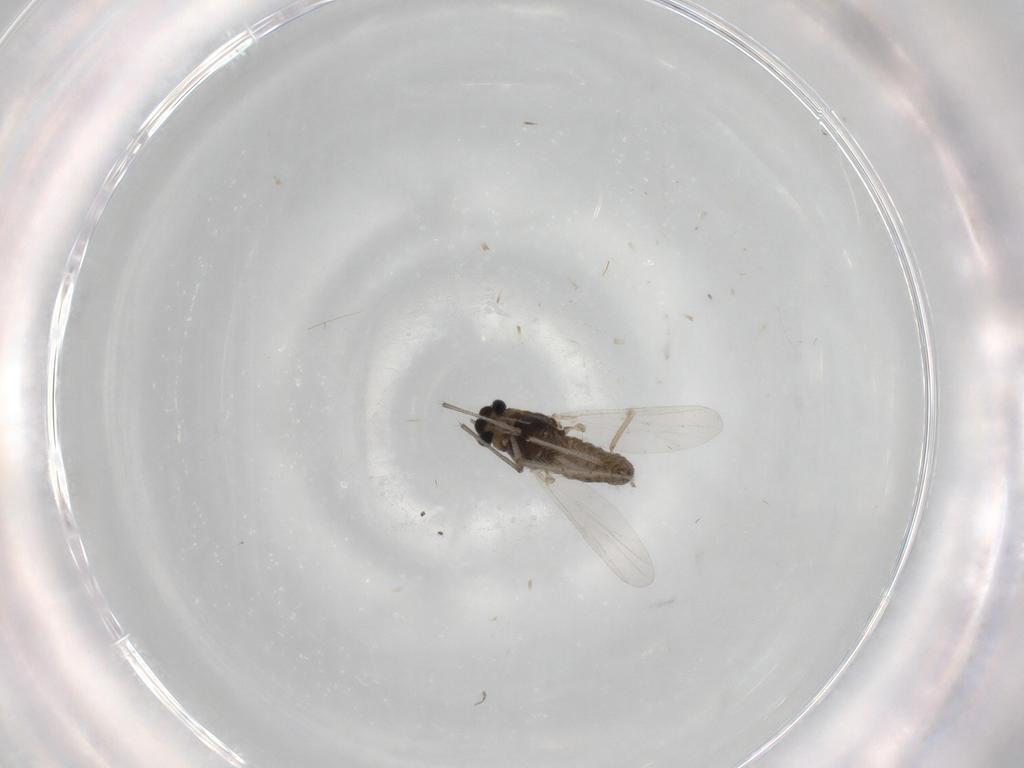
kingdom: Animalia
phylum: Arthropoda
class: Insecta
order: Diptera
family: Chironomidae
